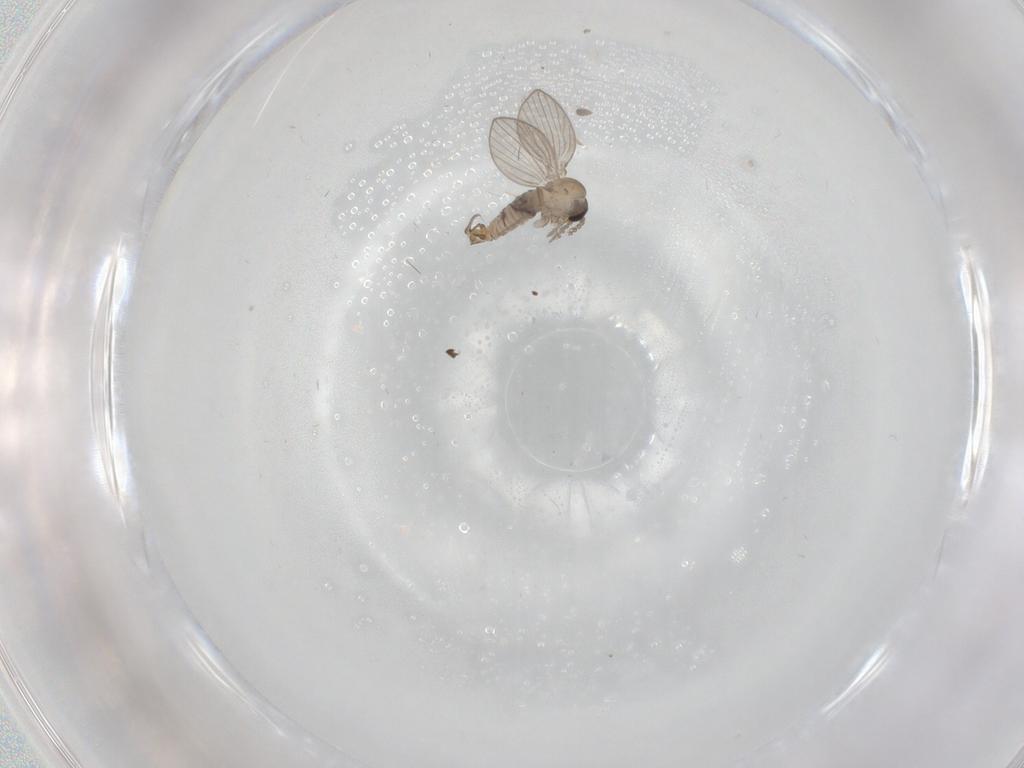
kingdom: Animalia
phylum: Arthropoda
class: Insecta
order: Diptera
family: Psychodidae
